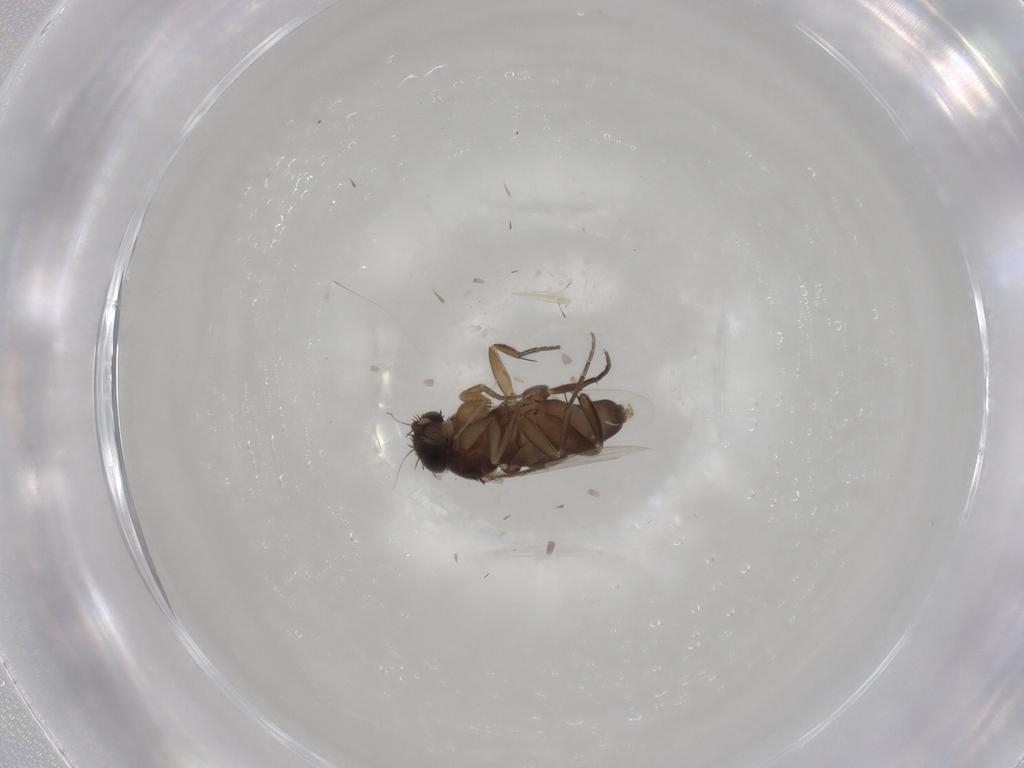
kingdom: Animalia
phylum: Arthropoda
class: Insecta
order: Diptera
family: Phoridae
